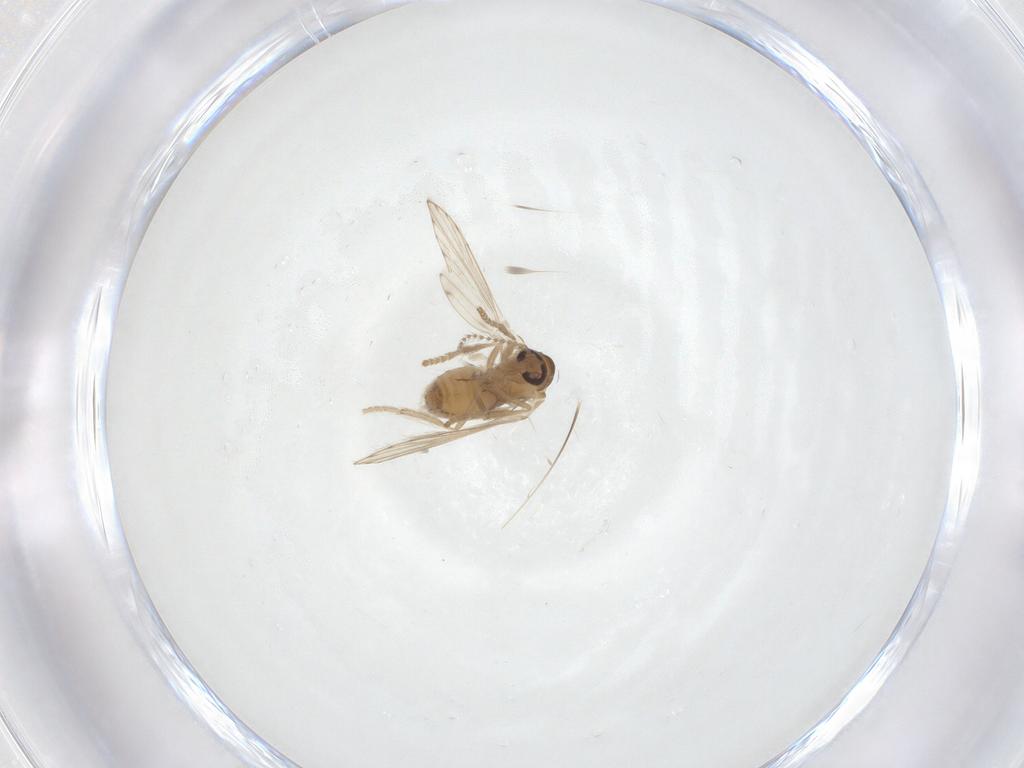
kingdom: Animalia
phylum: Arthropoda
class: Insecta
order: Diptera
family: Psychodidae
